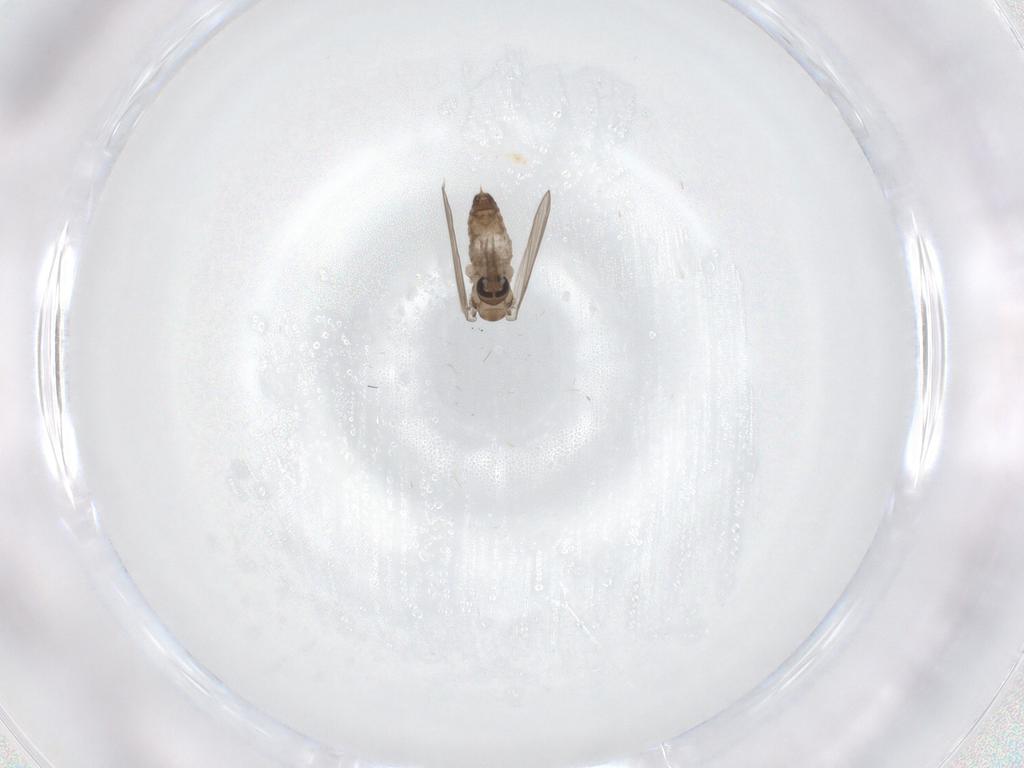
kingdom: Animalia
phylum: Arthropoda
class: Insecta
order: Diptera
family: Psychodidae
